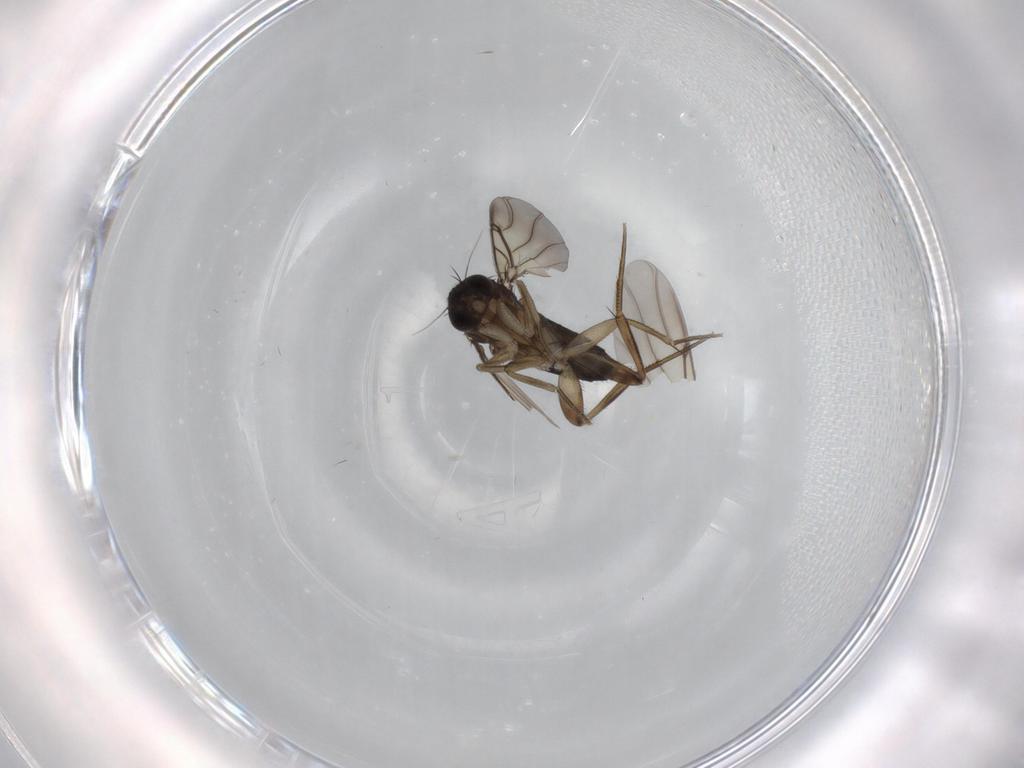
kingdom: Animalia
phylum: Arthropoda
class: Insecta
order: Diptera
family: Phoridae
